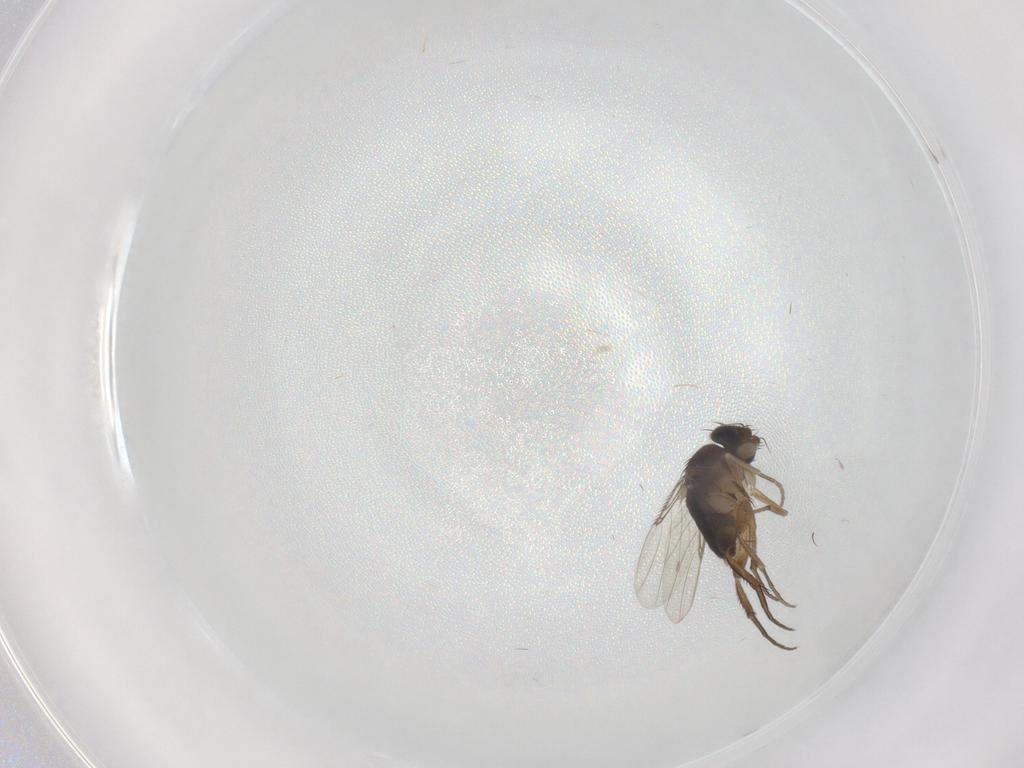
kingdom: Animalia
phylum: Arthropoda
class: Insecta
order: Diptera
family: Phoridae
